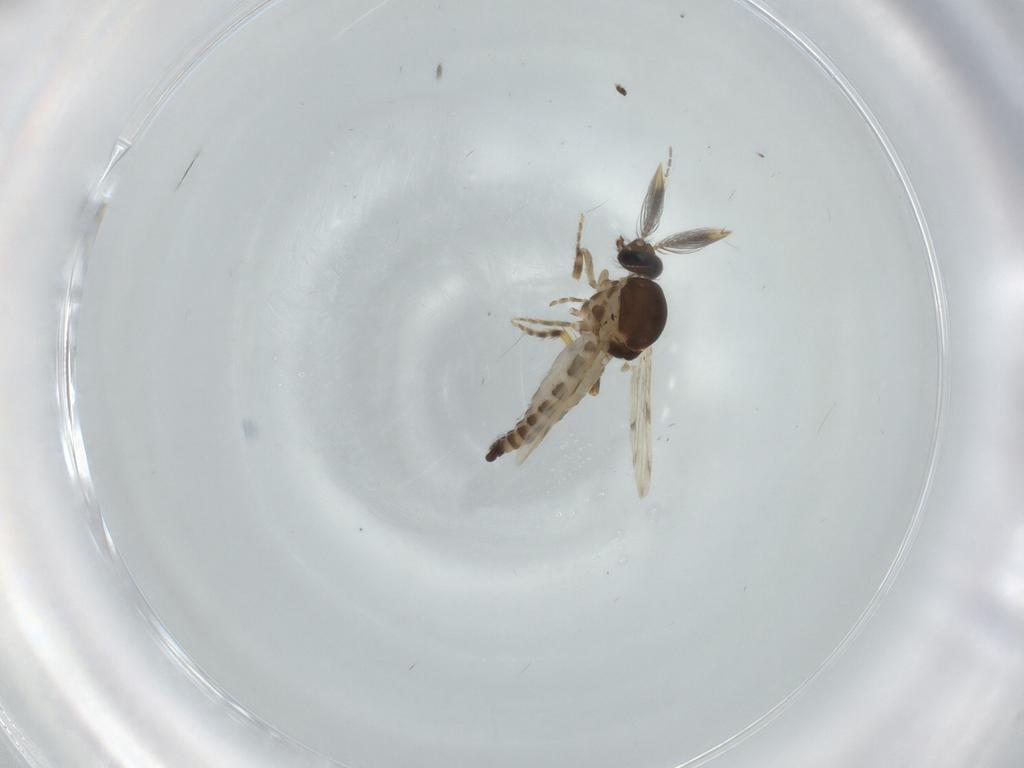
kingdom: Animalia
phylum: Arthropoda
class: Insecta
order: Diptera
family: Ceratopogonidae
